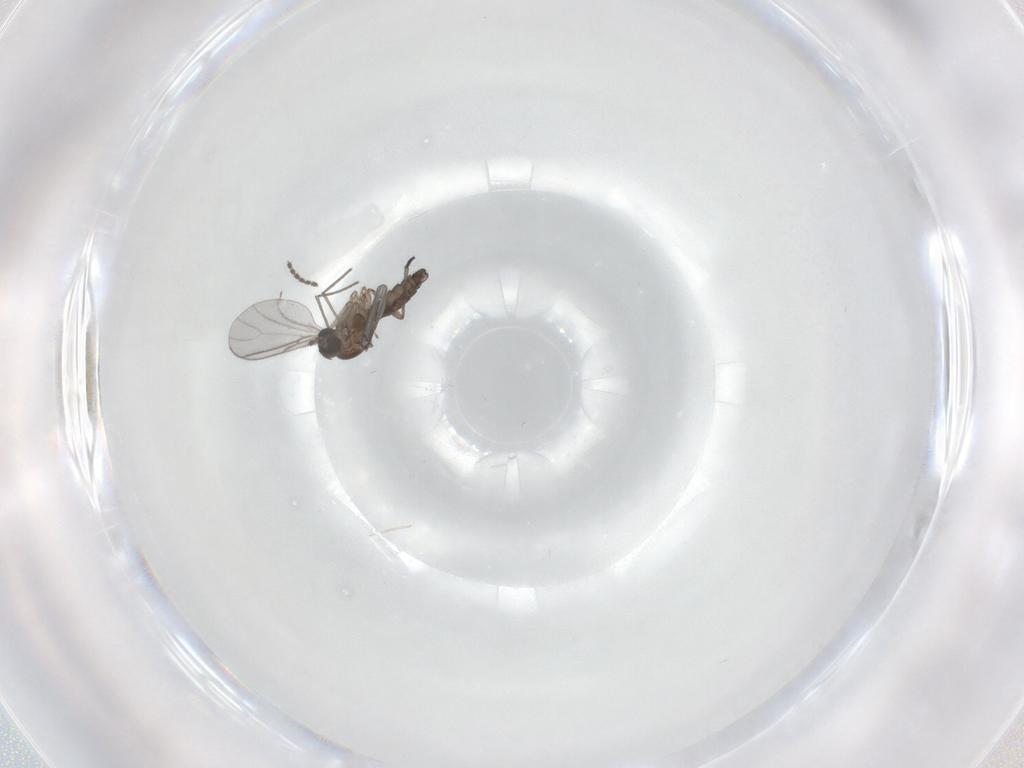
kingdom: Animalia
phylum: Arthropoda
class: Insecta
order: Diptera
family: Sciaridae
